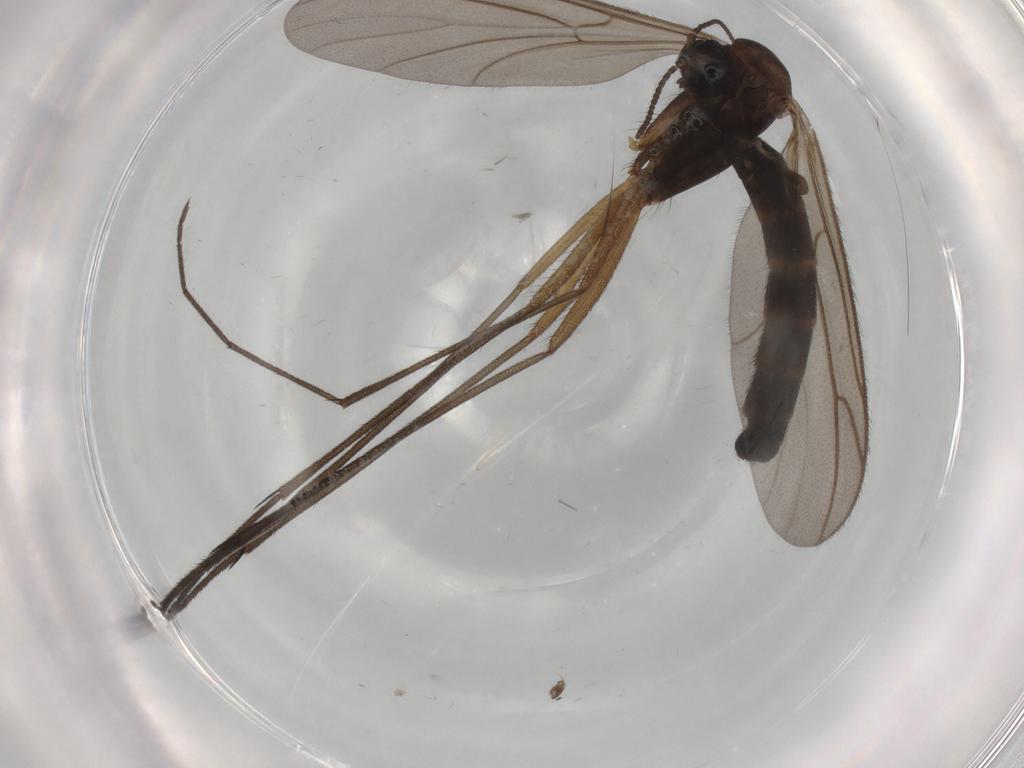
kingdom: Animalia
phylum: Arthropoda
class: Insecta
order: Diptera
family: Chironomidae
